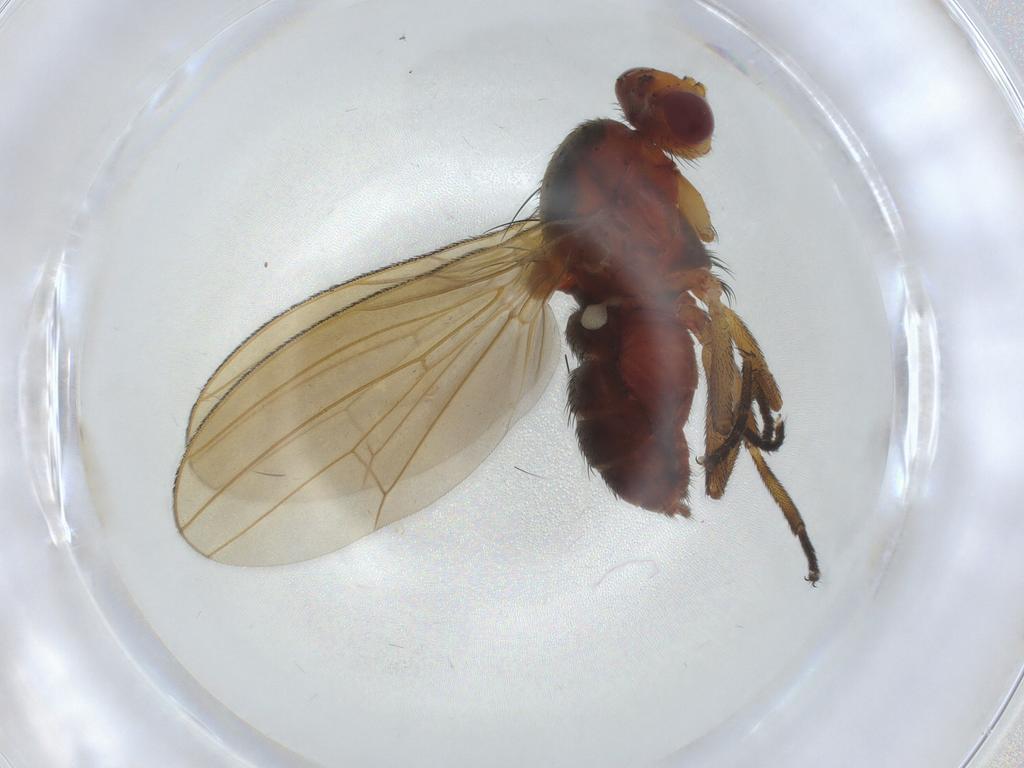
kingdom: Animalia
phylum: Arthropoda
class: Insecta
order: Diptera
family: Sciomyzidae
